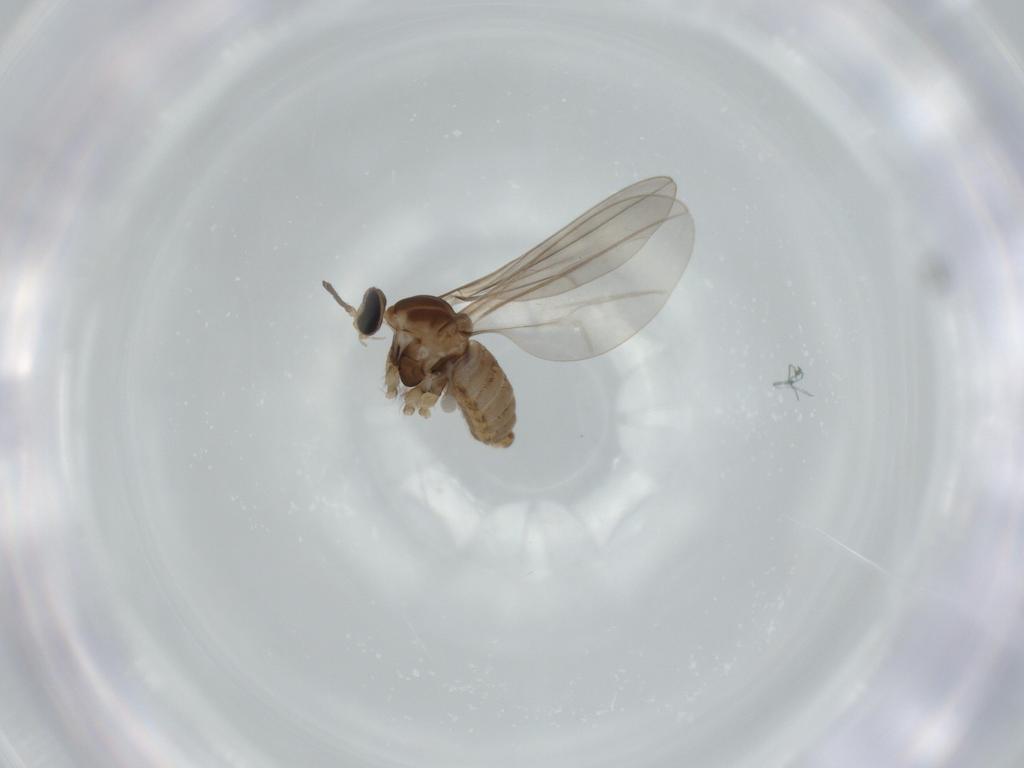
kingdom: Animalia
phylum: Arthropoda
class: Insecta
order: Diptera
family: Cecidomyiidae
